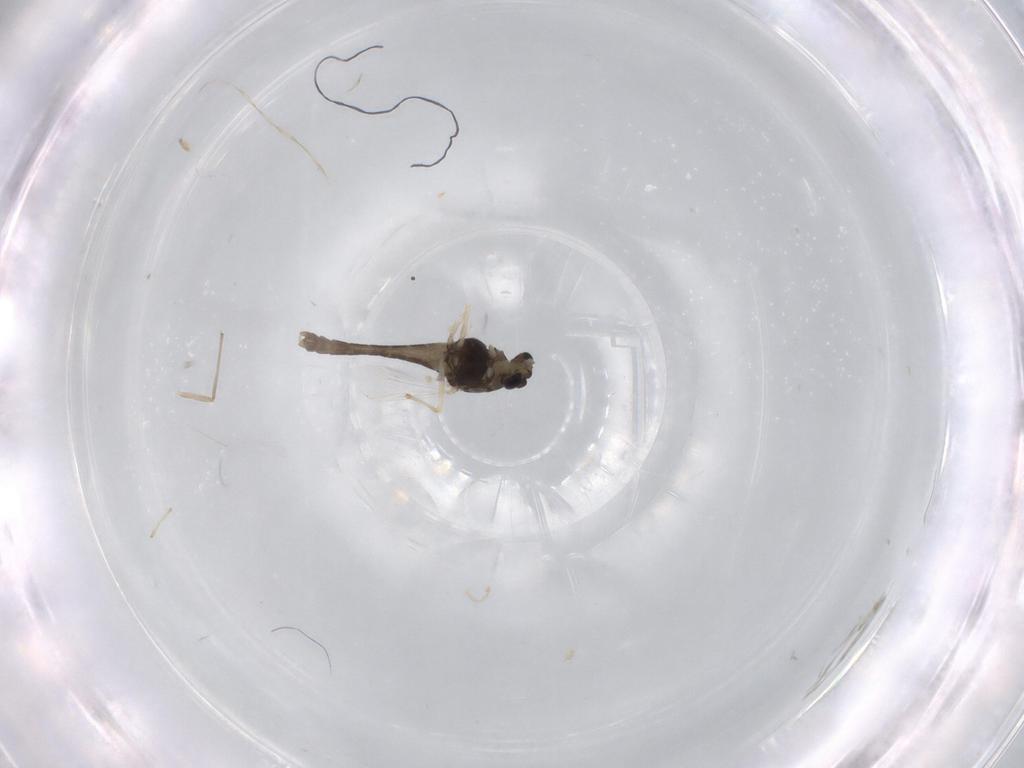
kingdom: Animalia
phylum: Arthropoda
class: Insecta
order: Diptera
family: Chironomidae
